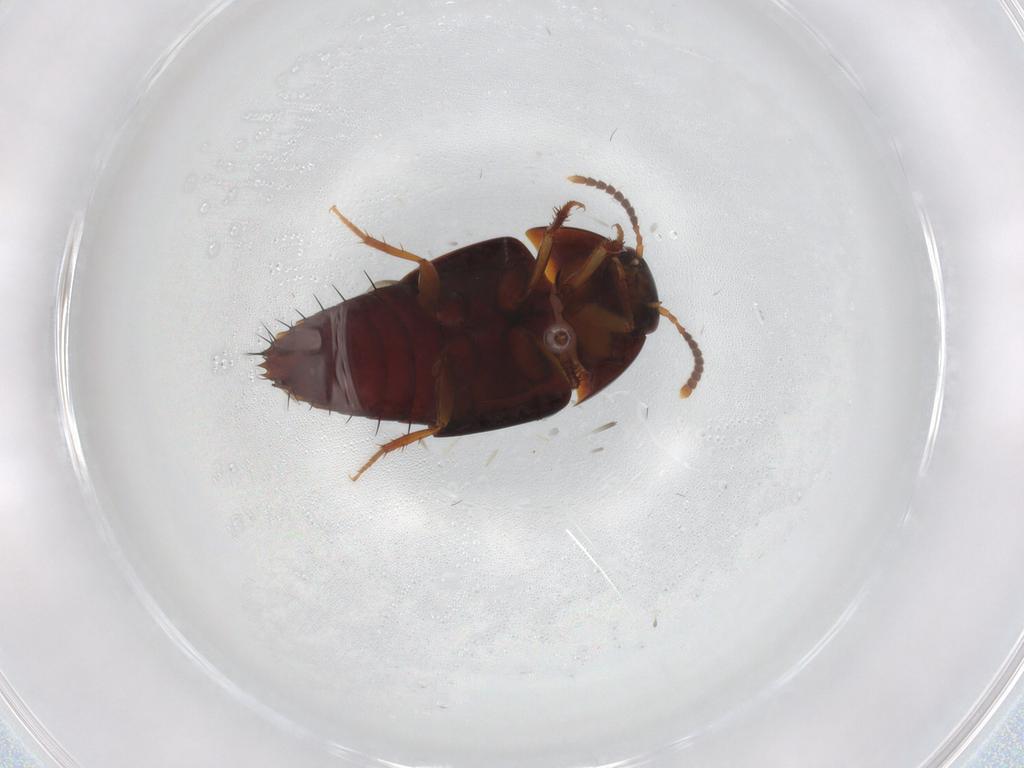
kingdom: Animalia
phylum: Arthropoda
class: Insecta
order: Coleoptera
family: Staphylinidae
